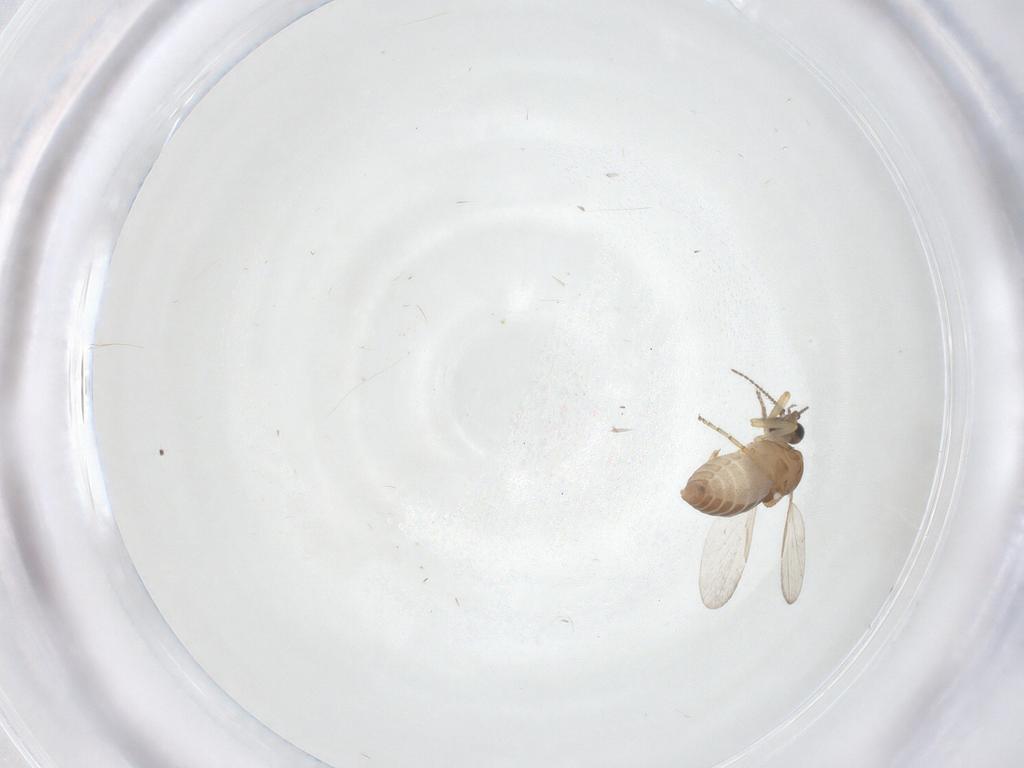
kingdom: Animalia
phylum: Arthropoda
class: Insecta
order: Diptera
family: Ceratopogonidae
